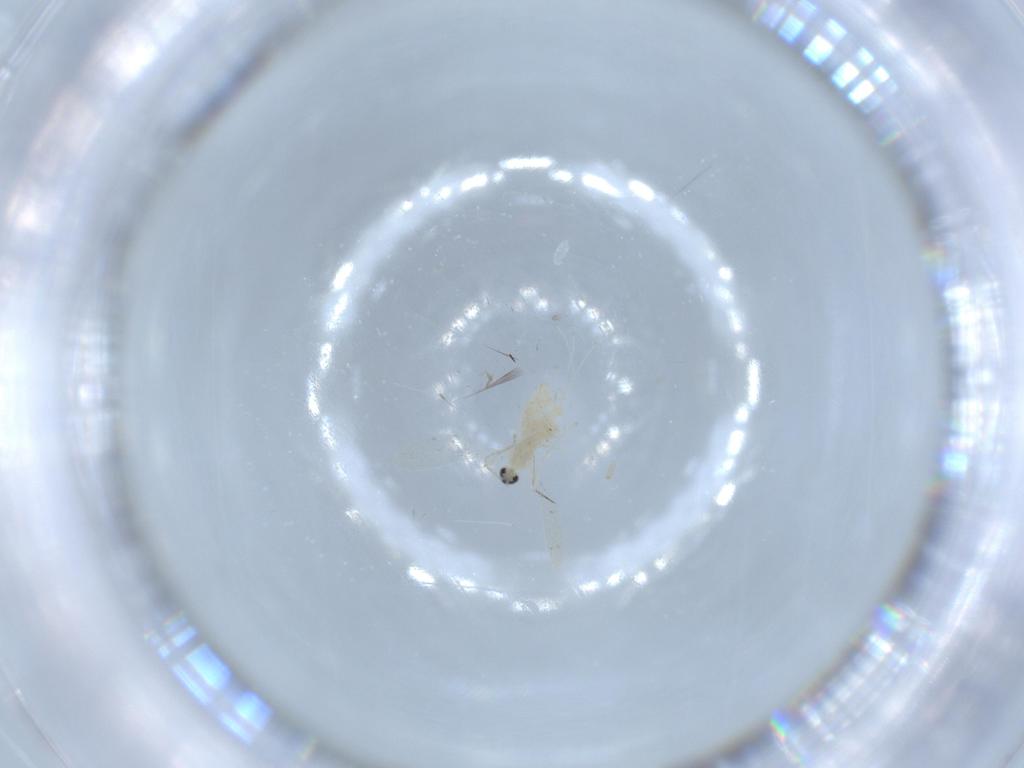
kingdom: Animalia
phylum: Arthropoda
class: Insecta
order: Diptera
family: Cecidomyiidae
